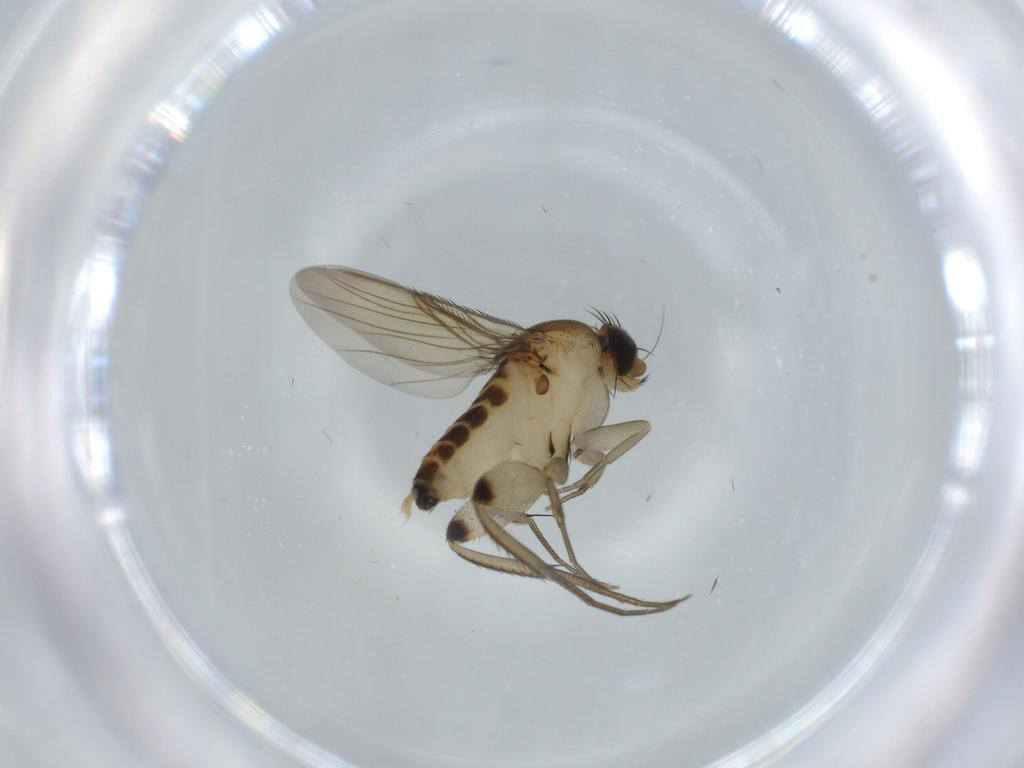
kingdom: Animalia
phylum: Arthropoda
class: Insecta
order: Diptera
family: Phoridae
